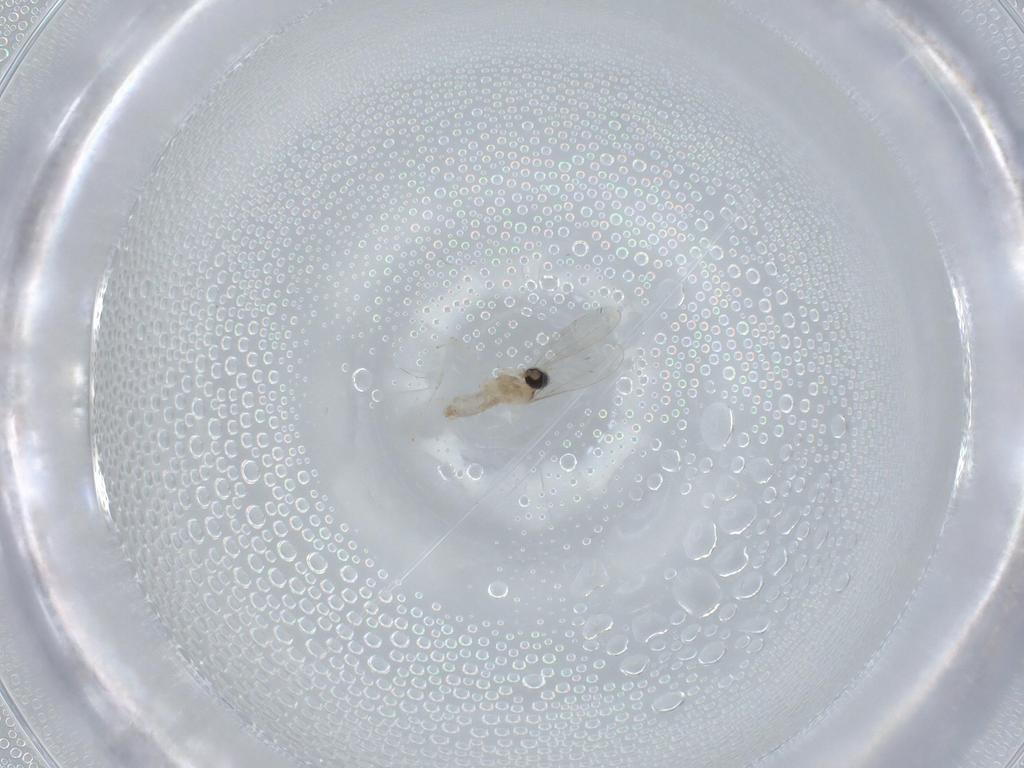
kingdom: Animalia
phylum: Arthropoda
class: Insecta
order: Diptera
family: Cecidomyiidae
